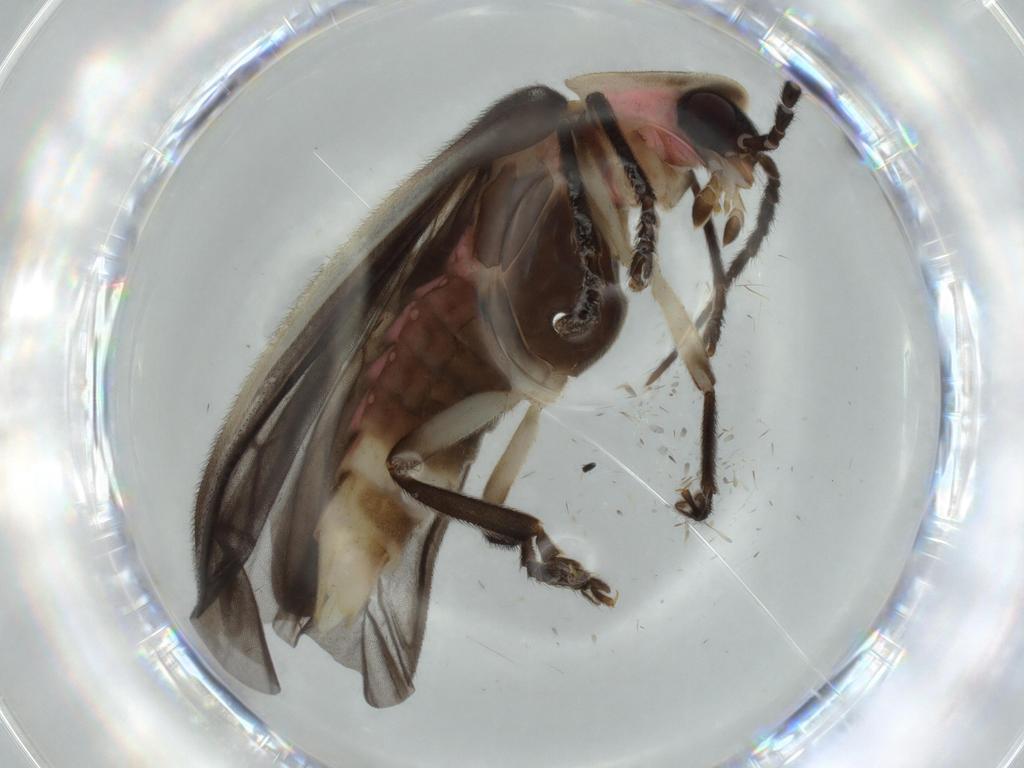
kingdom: Animalia
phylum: Arthropoda
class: Insecta
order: Coleoptera
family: Lampyridae
